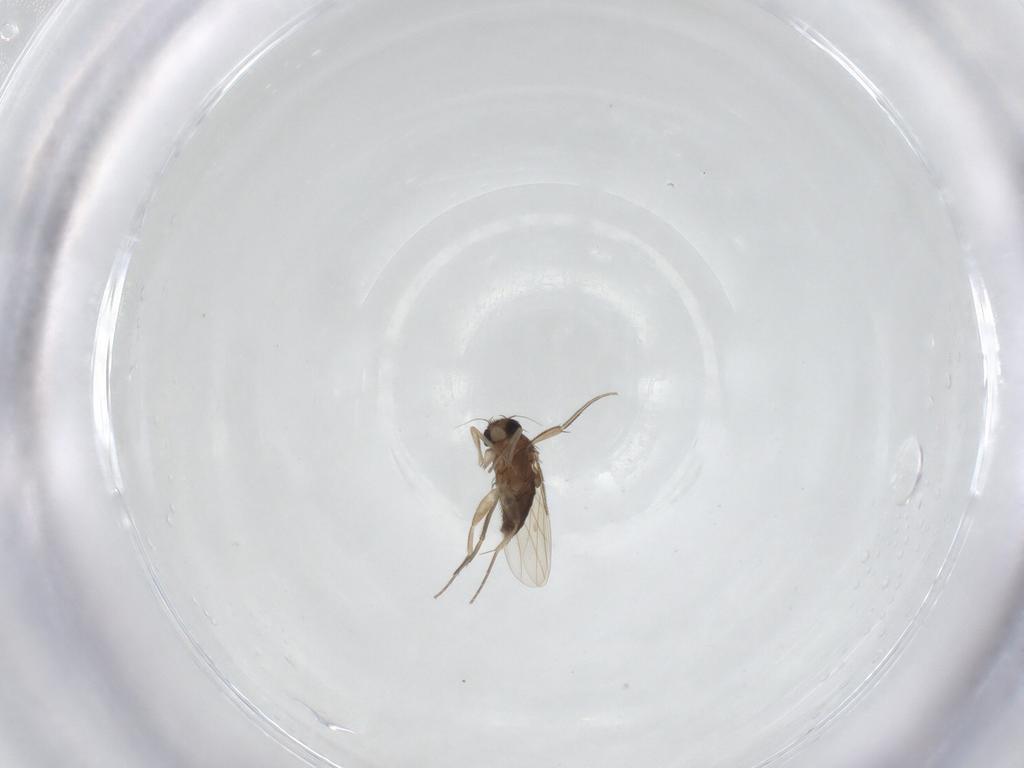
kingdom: Animalia
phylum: Arthropoda
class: Insecta
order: Diptera
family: Phoridae
